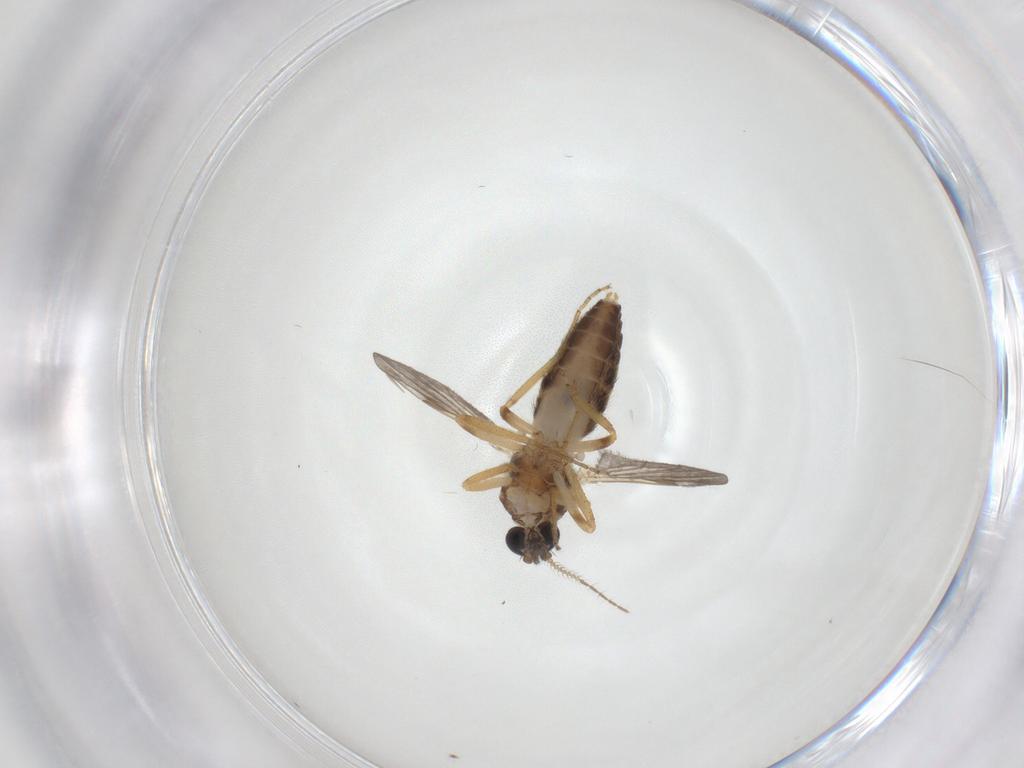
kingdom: Animalia
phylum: Arthropoda
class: Insecta
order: Diptera
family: Ceratopogonidae
